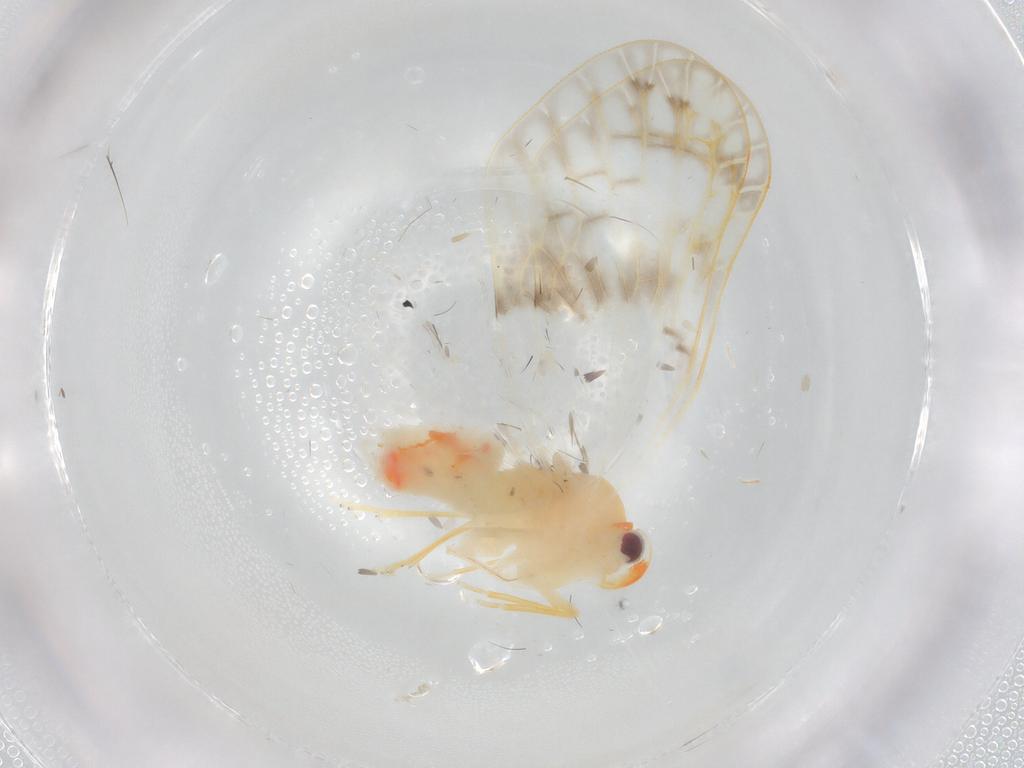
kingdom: Animalia
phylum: Arthropoda
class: Insecta
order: Hemiptera
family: Derbidae
